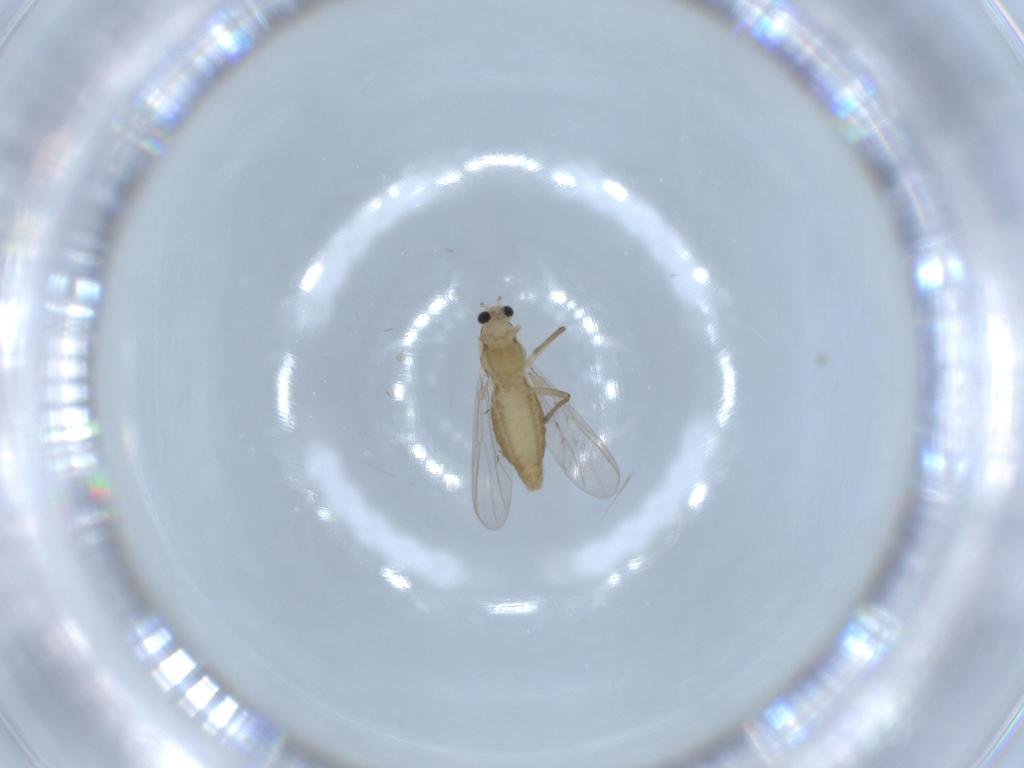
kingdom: Animalia
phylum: Arthropoda
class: Insecta
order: Diptera
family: Chironomidae
